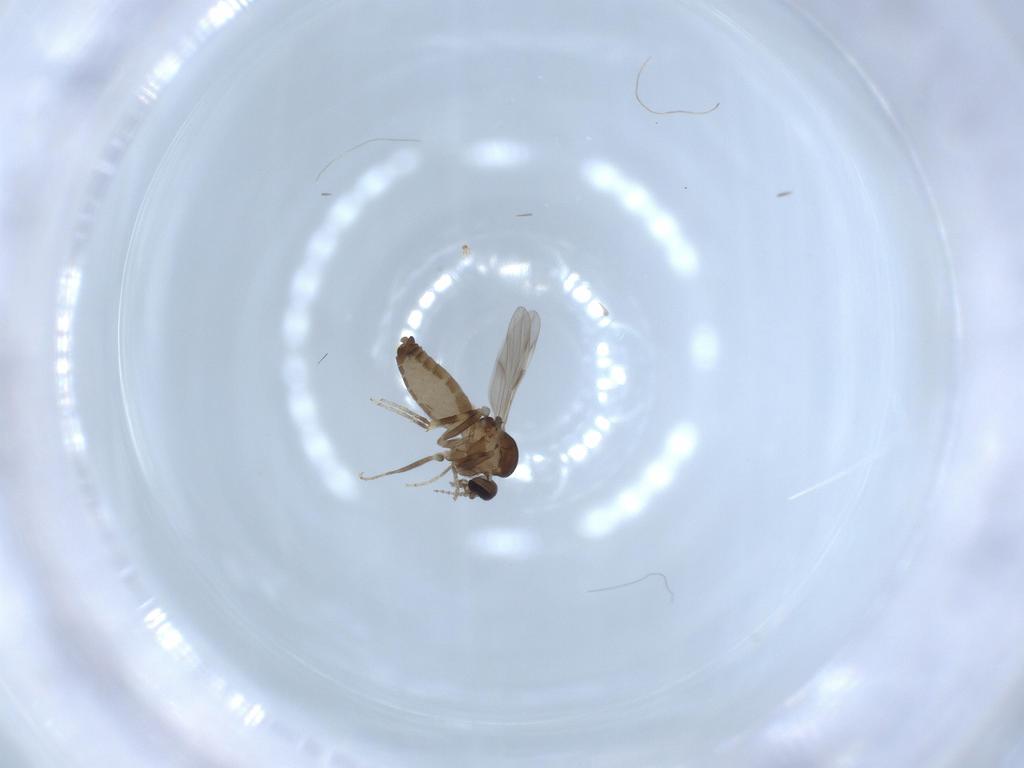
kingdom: Animalia
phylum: Arthropoda
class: Insecta
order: Diptera
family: Ceratopogonidae
